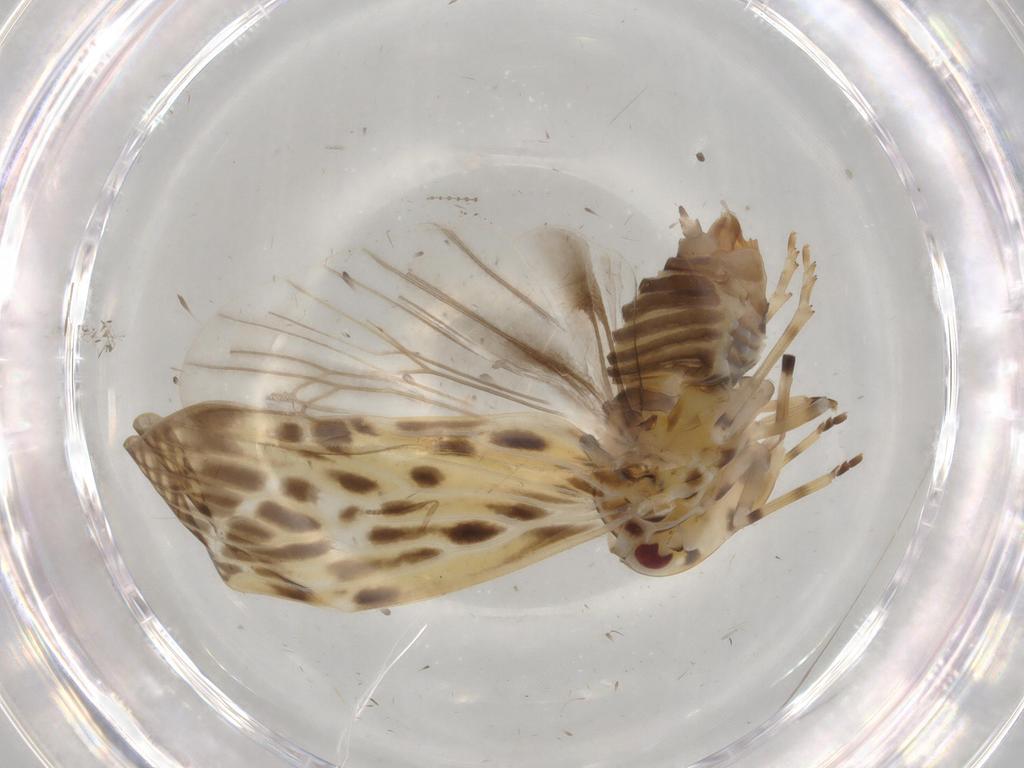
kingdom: Animalia
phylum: Arthropoda
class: Insecta
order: Hemiptera
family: Derbidae
